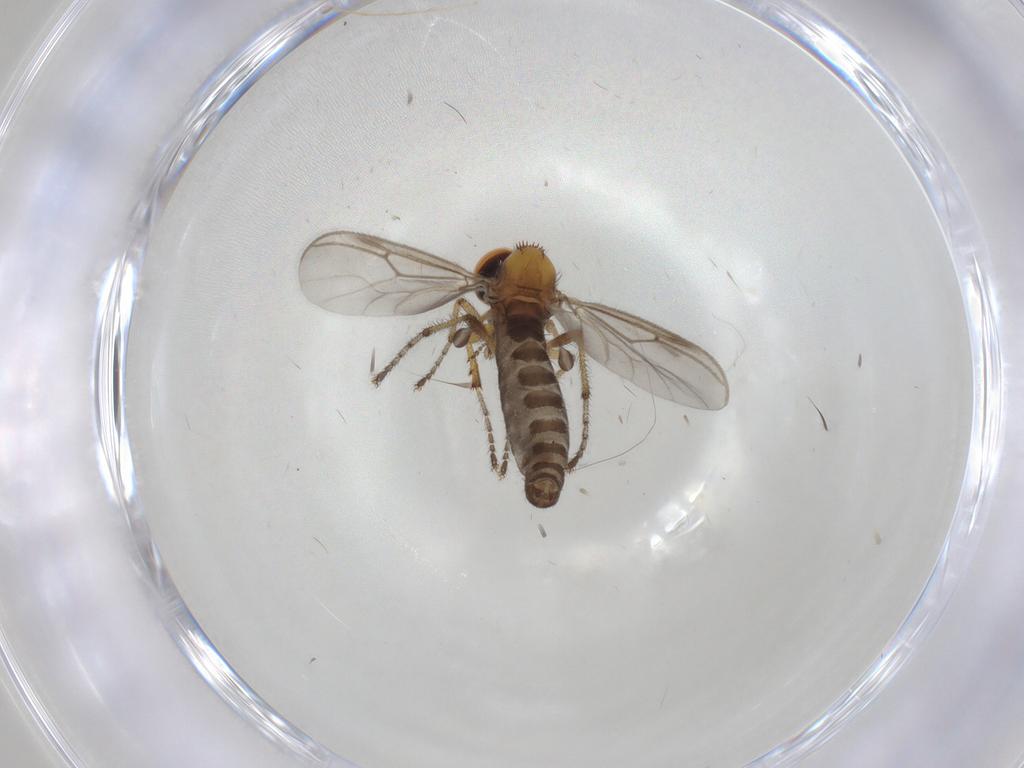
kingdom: Animalia
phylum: Arthropoda
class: Insecta
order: Diptera
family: Bibionidae
